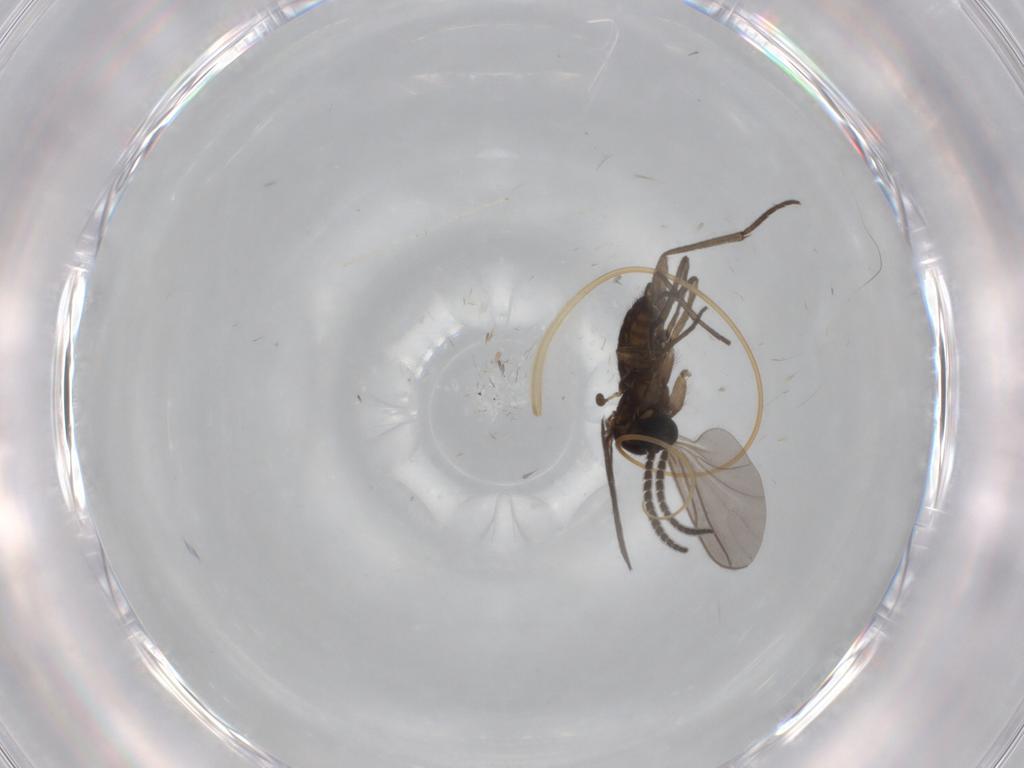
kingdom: Animalia
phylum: Arthropoda
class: Insecta
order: Diptera
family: Sciaridae
